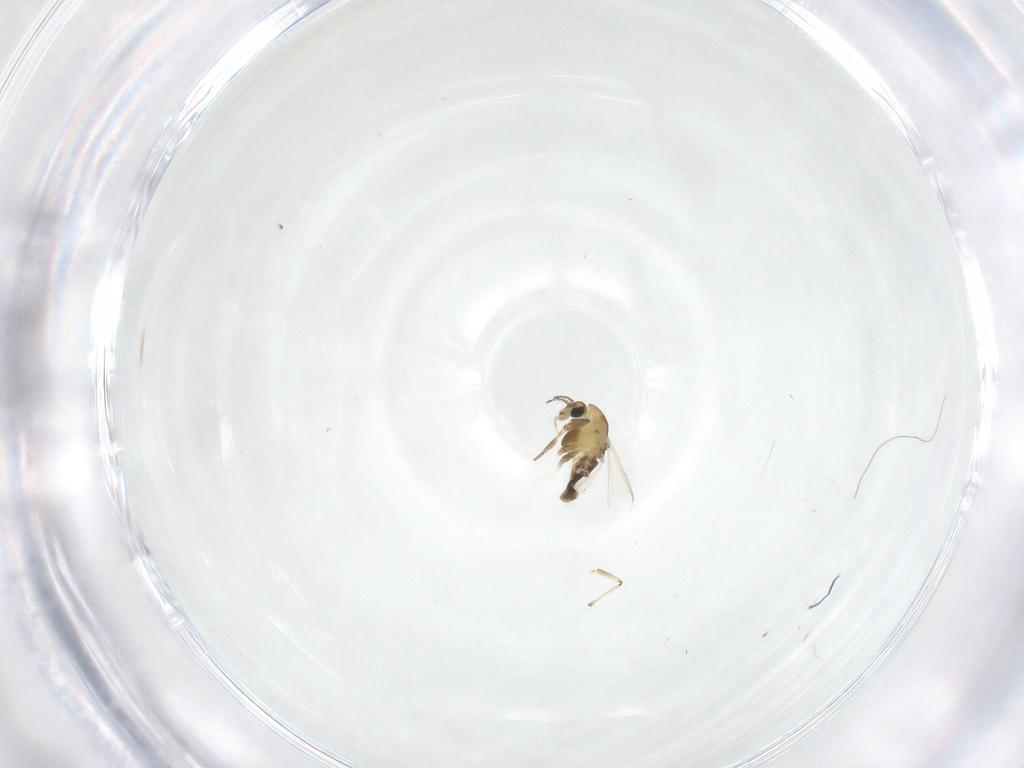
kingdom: Animalia
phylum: Arthropoda
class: Insecta
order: Diptera
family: Chironomidae
